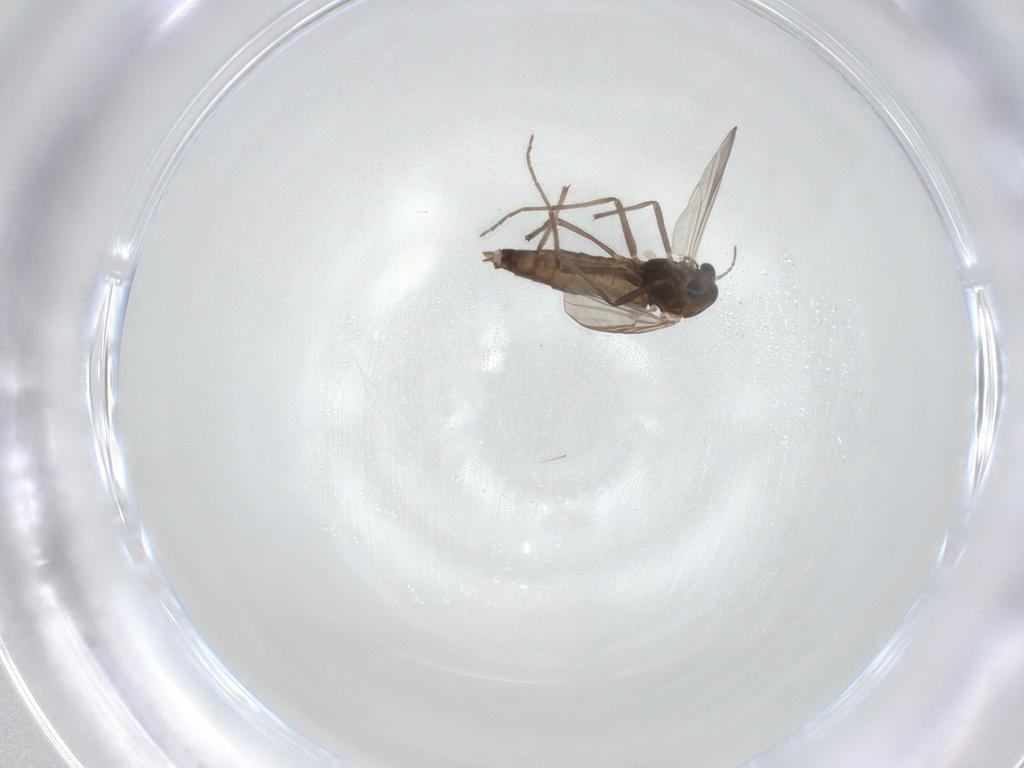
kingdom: Animalia
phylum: Arthropoda
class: Insecta
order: Diptera
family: Chironomidae
